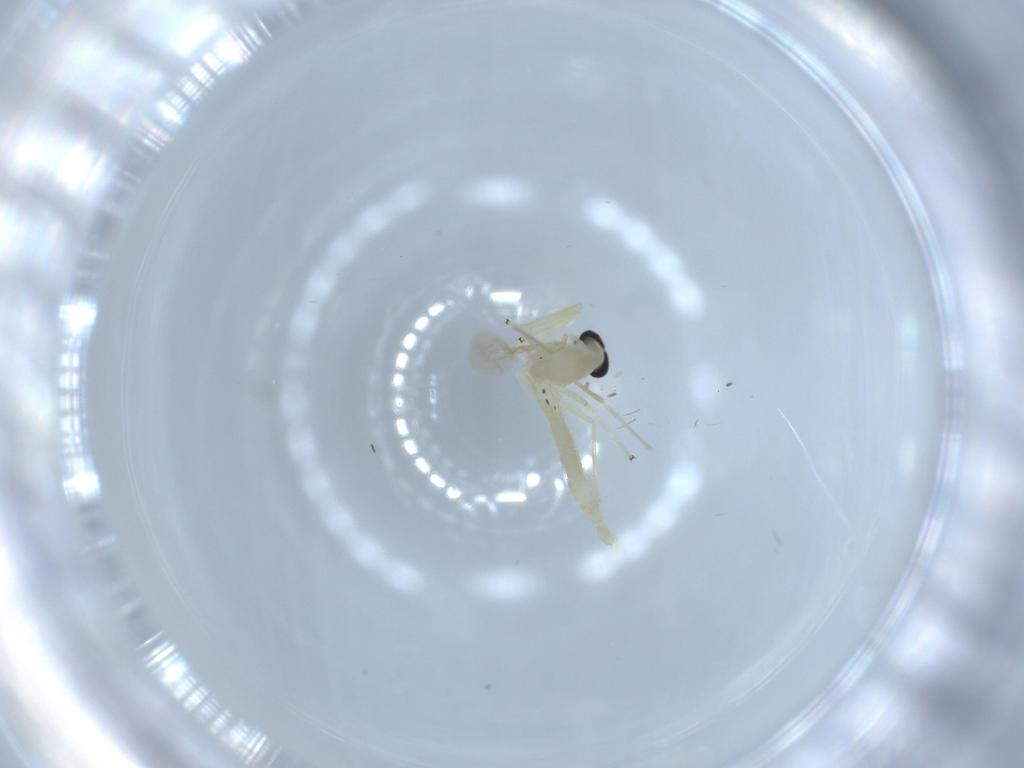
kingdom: Animalia
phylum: Arthropoda
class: Insecta
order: Diptera
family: Chironomidae
